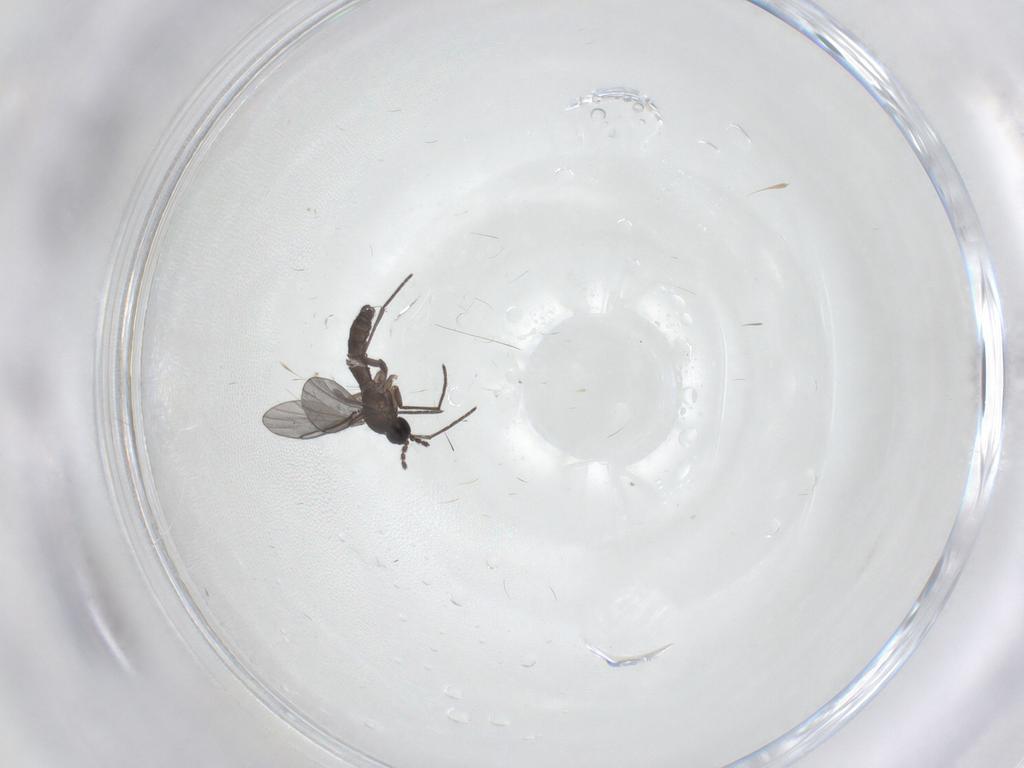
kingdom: Animalia
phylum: Arthropoda
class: Insecta
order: Diptera
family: Sciaridae
